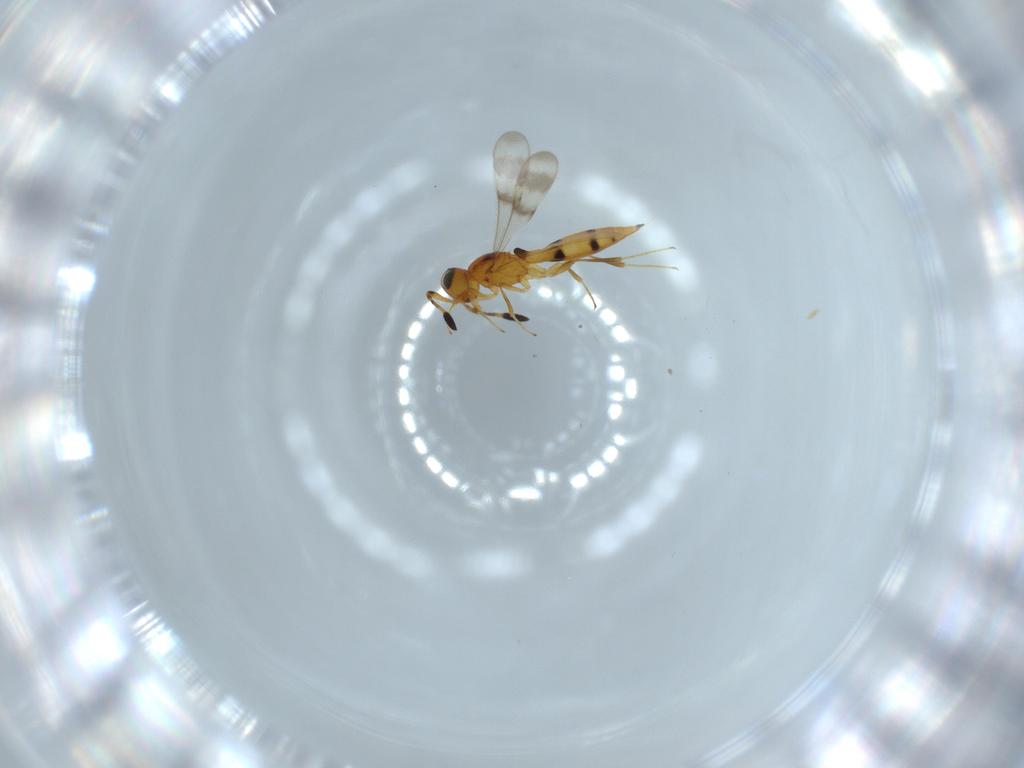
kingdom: Animalia
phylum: Arthropoda
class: Insecta
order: Hymenoptera
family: Scelionidae
